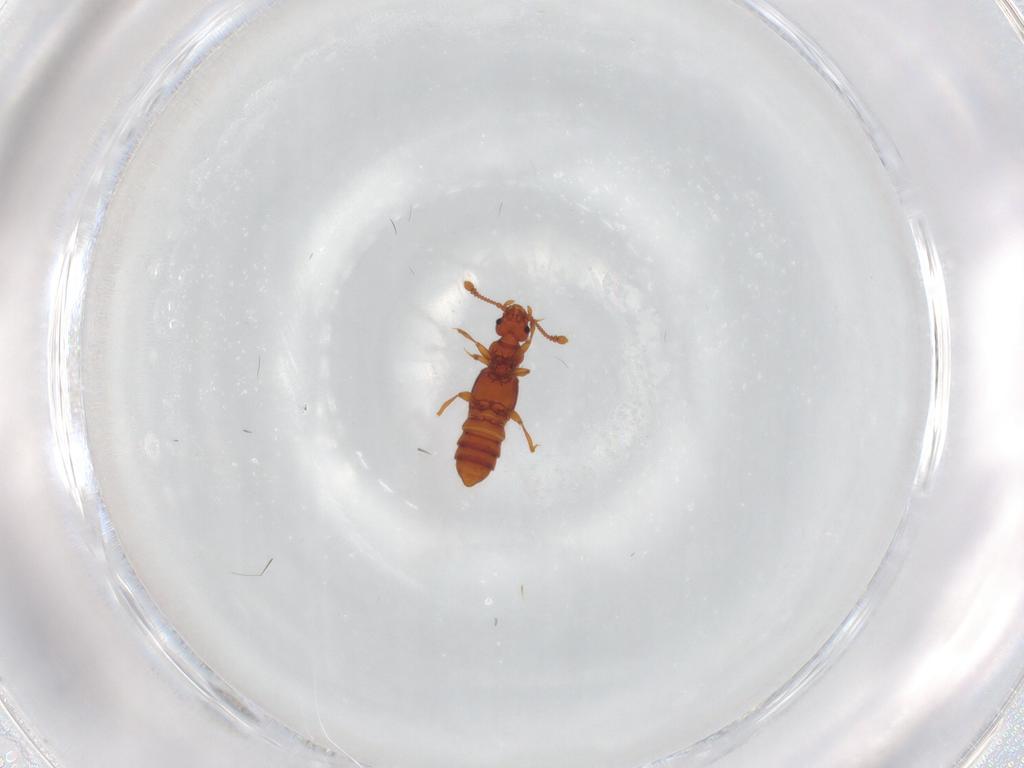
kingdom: Animalia
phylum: Arthropoda
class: Insecta
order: Coleoptera
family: Staphylinidae
